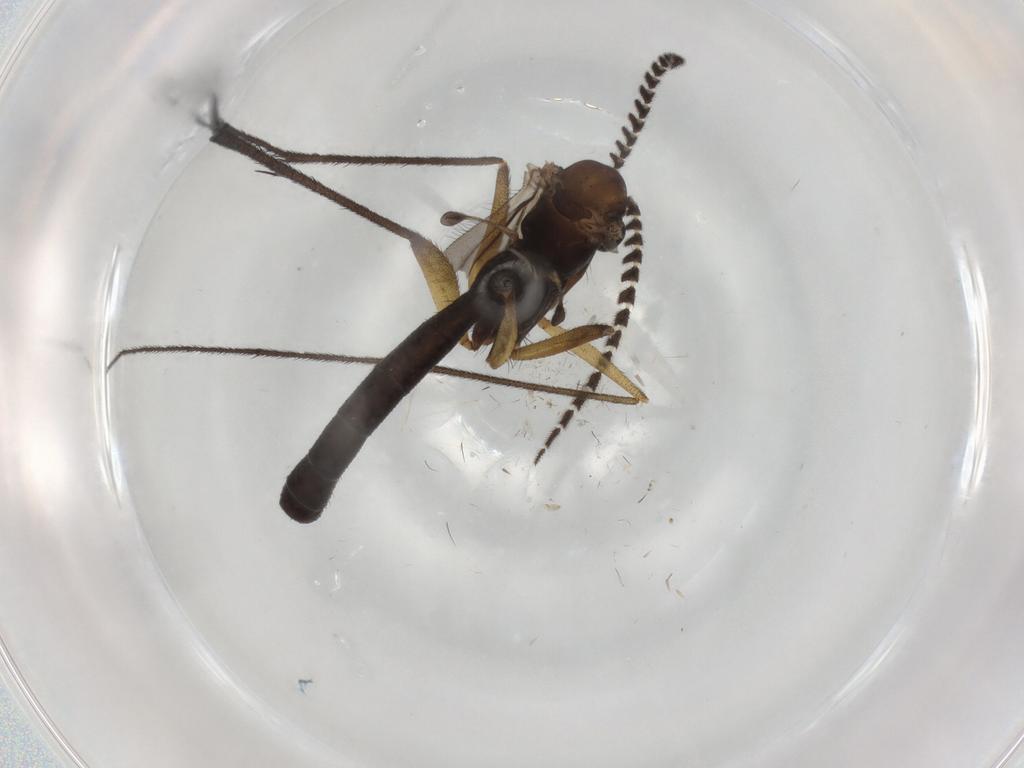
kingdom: Animalia
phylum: Arthropoda
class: Insecta
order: Diptera
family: Ditomyiidae
